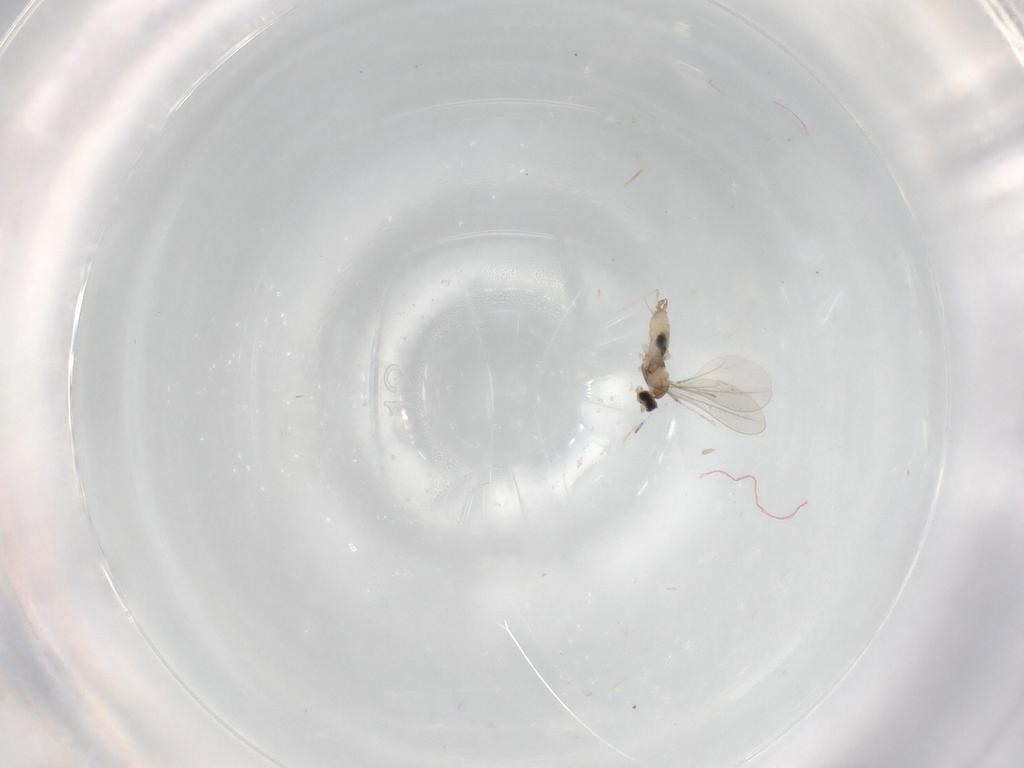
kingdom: Animalia
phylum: Arthropoda
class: Insecta
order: Diptera
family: Cecidomyiidae
